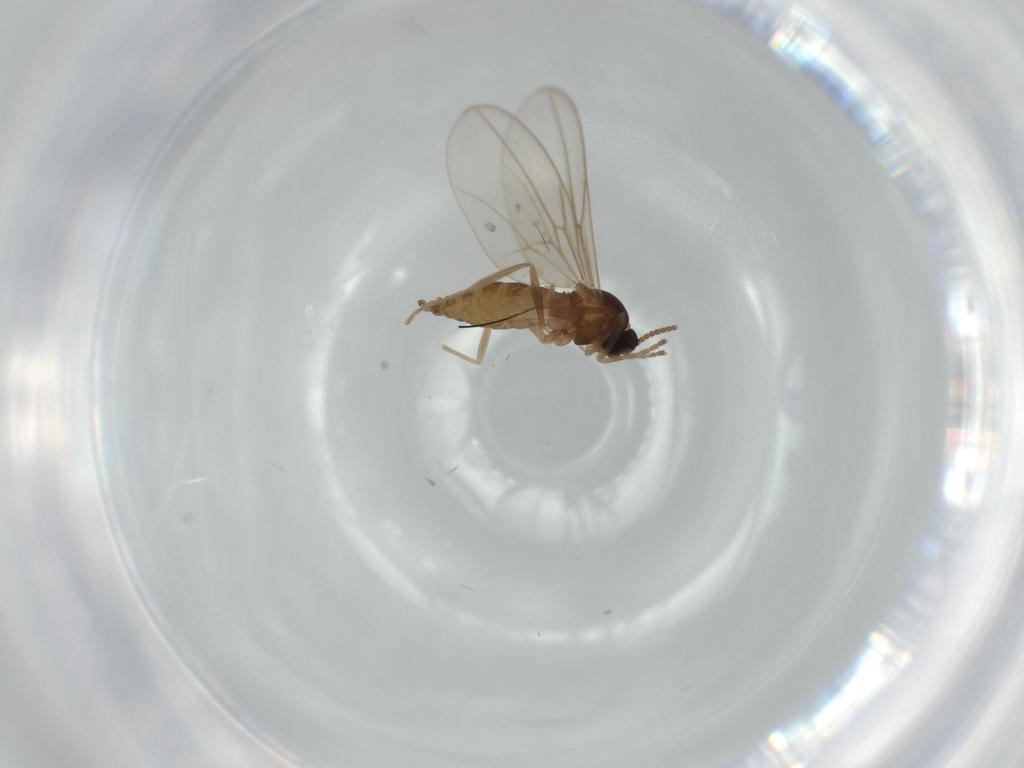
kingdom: Animalia
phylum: Arthropoda
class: Insecta
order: Diptera
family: Cecidomyiidae
